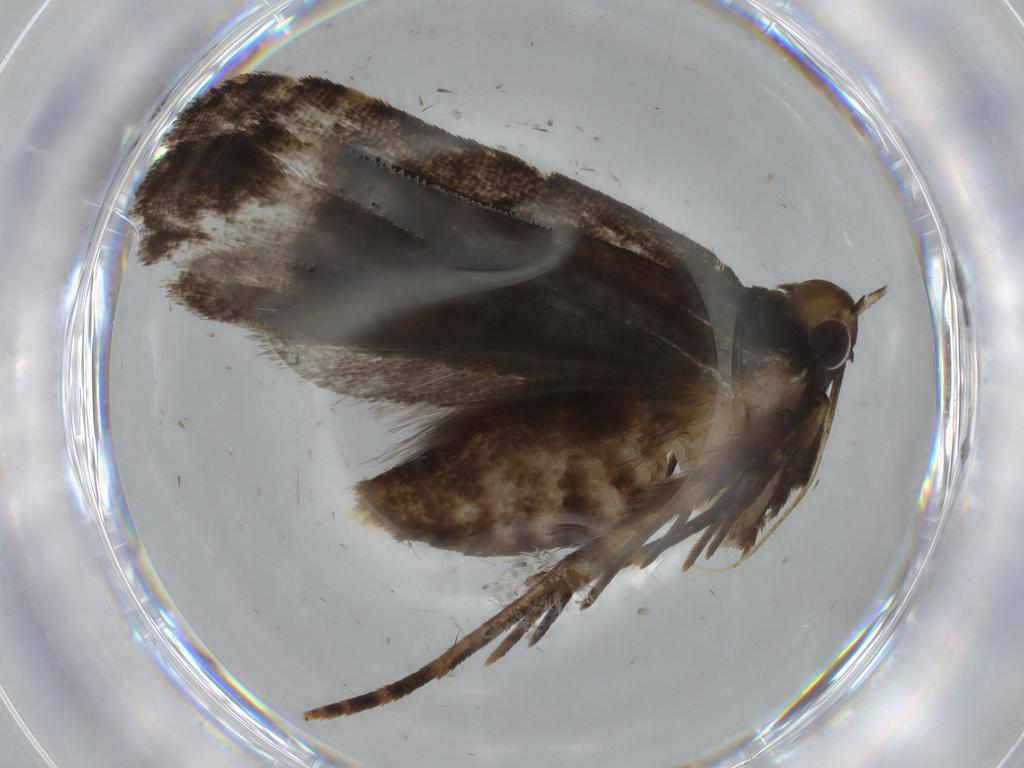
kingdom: Animalia
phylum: Arthropoda
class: Insecta
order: Lepidoptera
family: Gelechiidae
